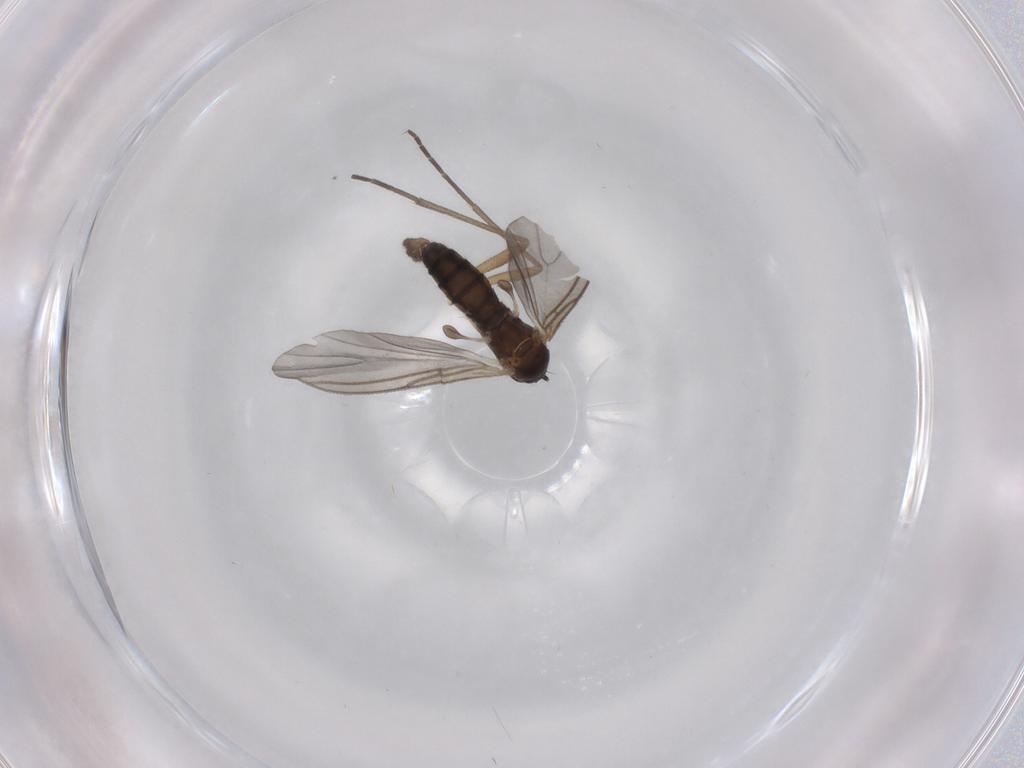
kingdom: Animalia
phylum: Arthropoda
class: Insecta
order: Diptera
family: Sciaridae
